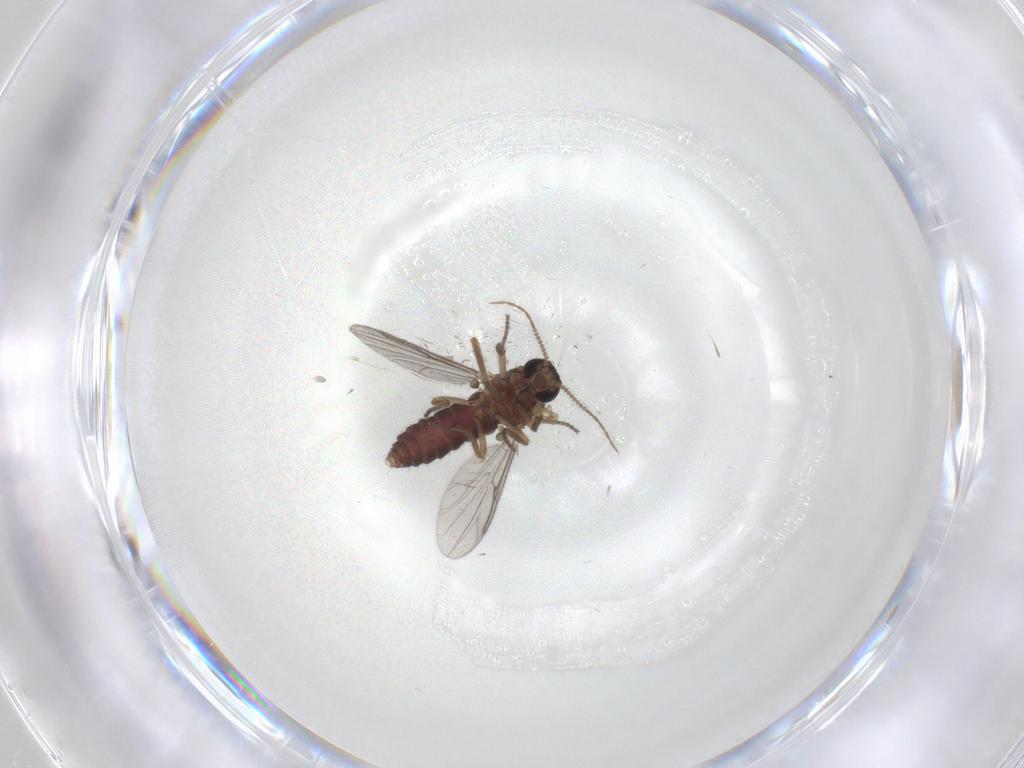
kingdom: Animalia
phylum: Arthropoda
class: Insecta
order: Diptera
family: Ceratopogonidae
